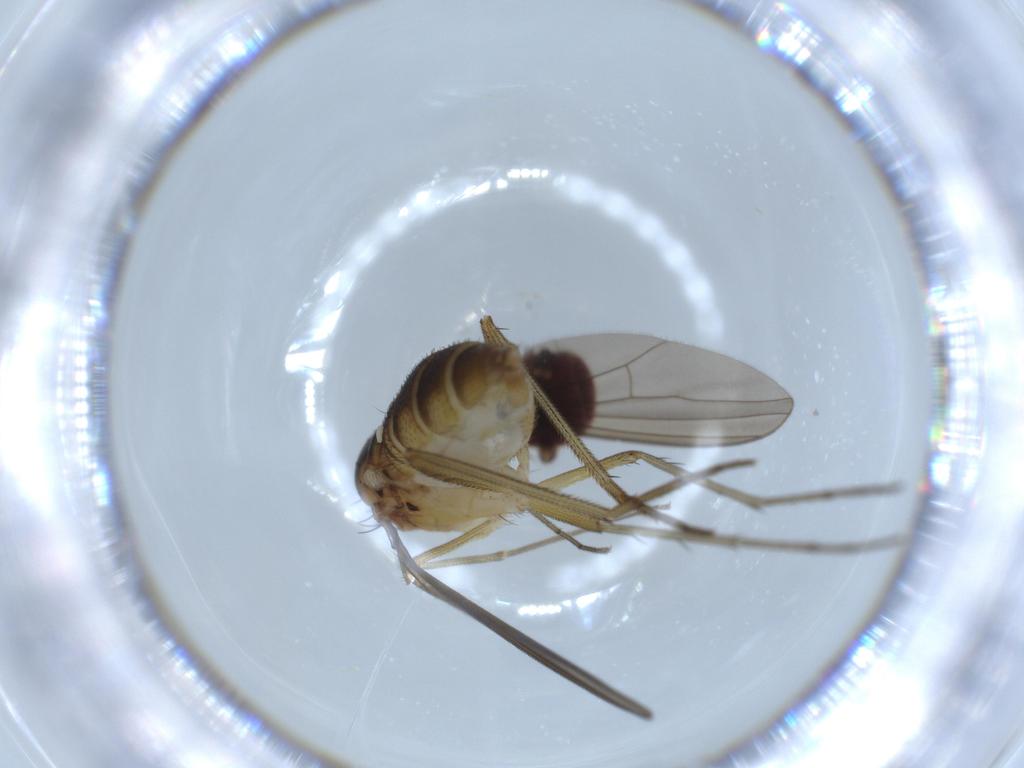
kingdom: Animalia
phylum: Arthropoda
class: Insecta
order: Diptera
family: Dolichopodidae
